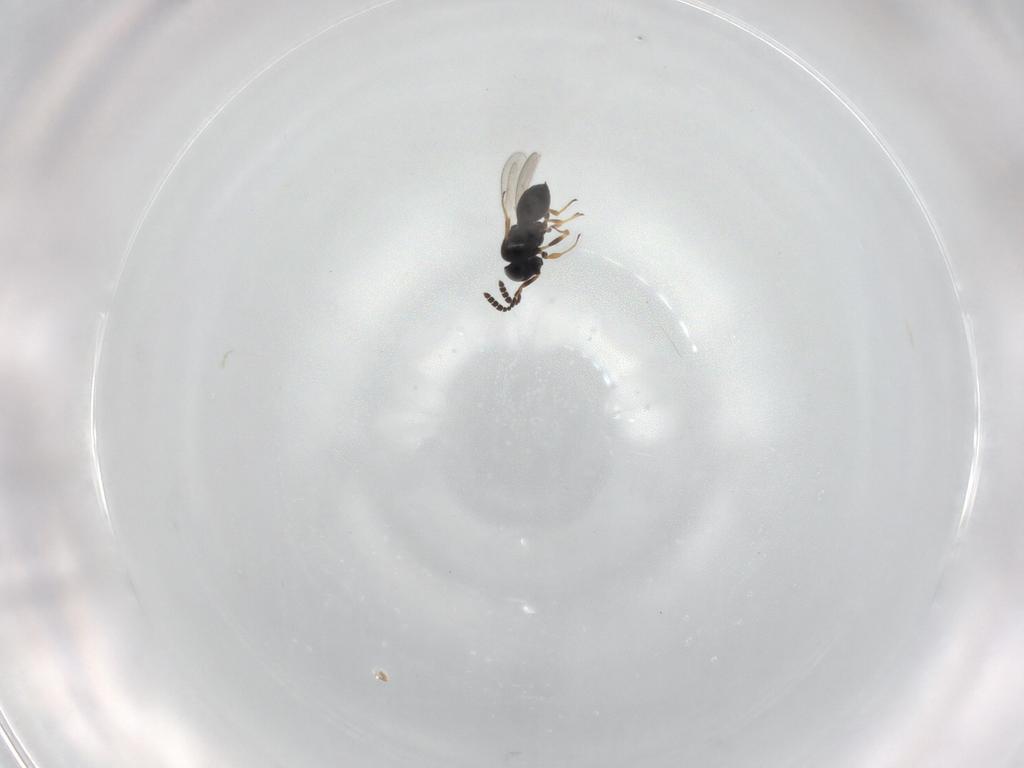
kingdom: Animalia
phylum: Arthropoda
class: Insecta
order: Hymenoptera
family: Scelionidae
